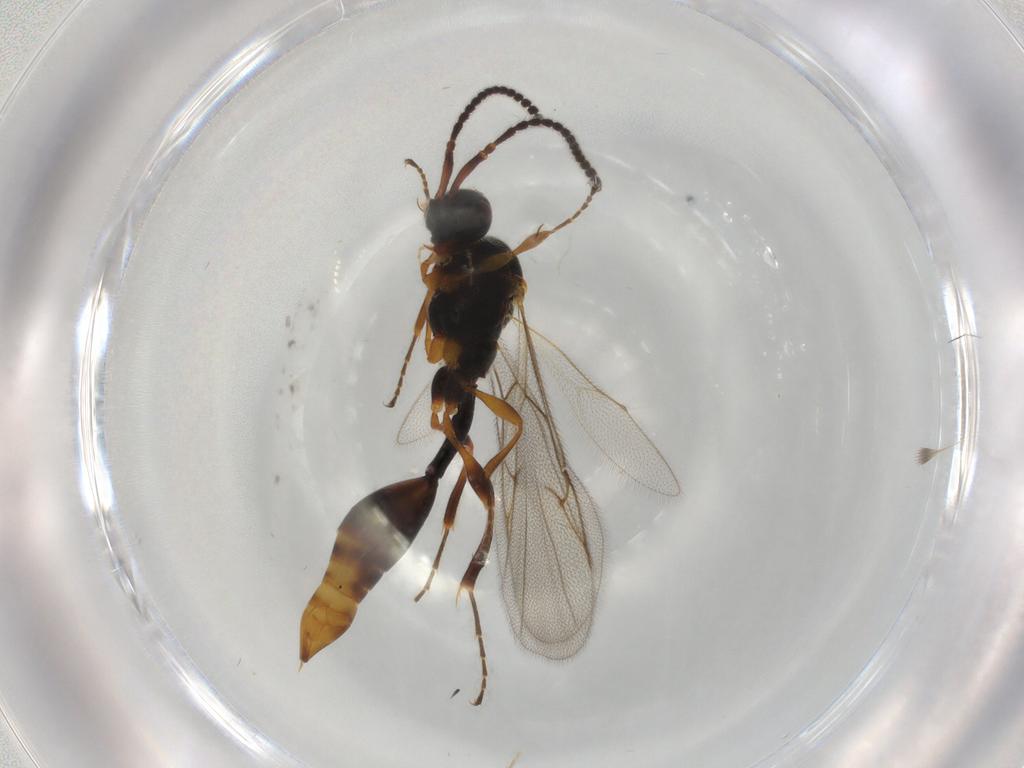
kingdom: Animalia
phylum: Arthropoda
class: Insecta
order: Hymenoptera
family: Diapriidae
